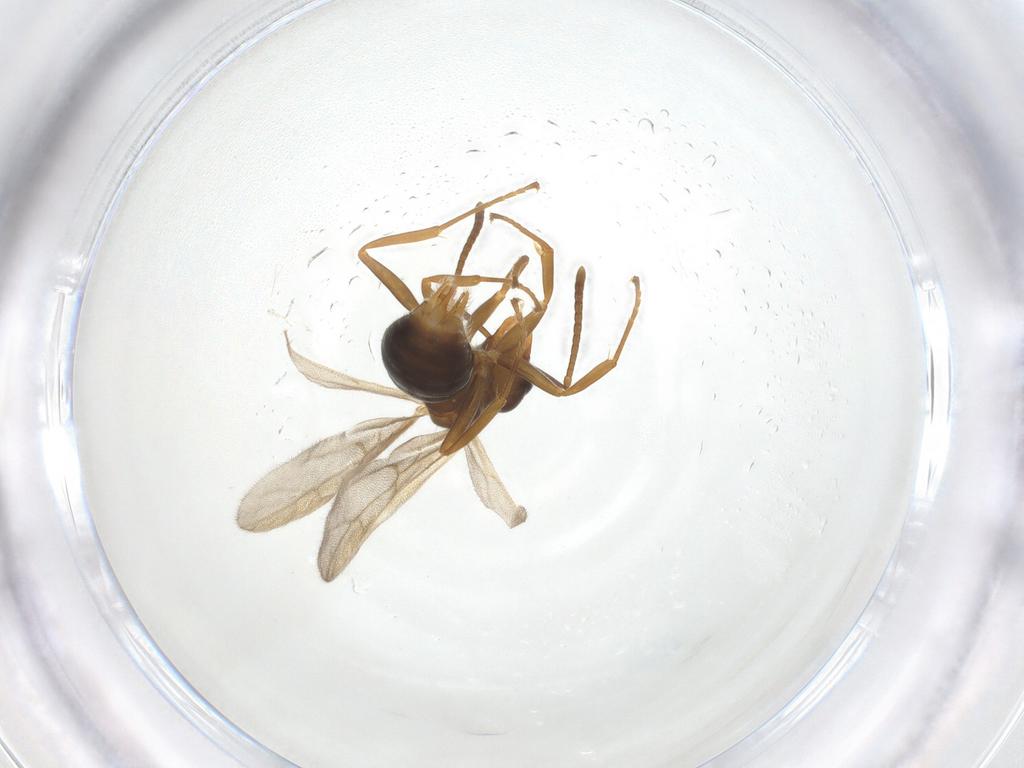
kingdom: Animalia
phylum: Arthropoda
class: Insecta
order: Hymenoptera
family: Formicidae
